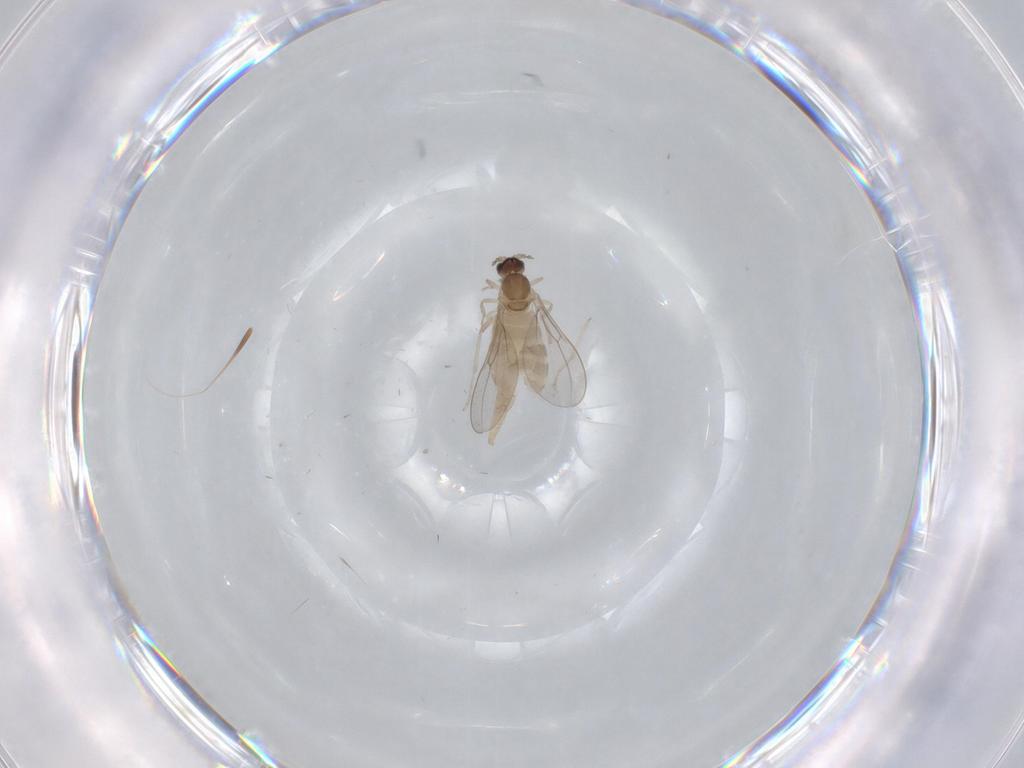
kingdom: Animalia
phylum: Arthropoda
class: Insecta
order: Diptera
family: Cecidomyiidae
